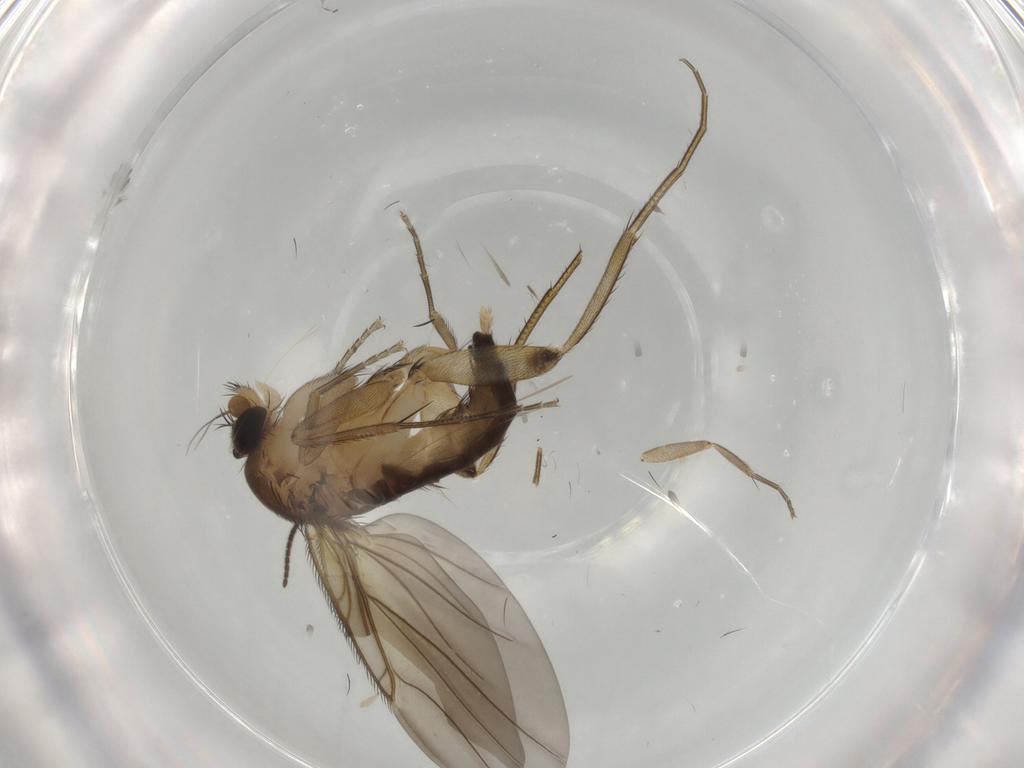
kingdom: Animalia
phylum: Arthropoda
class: Insecta
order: Diptera
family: Phoridae
